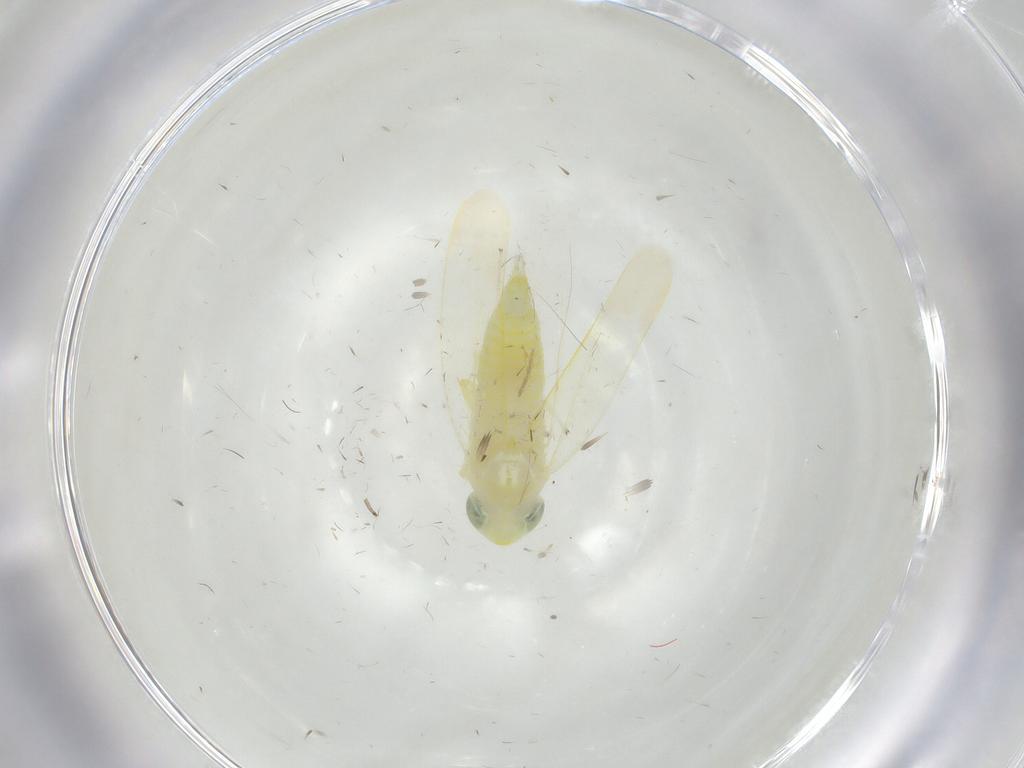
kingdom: Animalia
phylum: Arthropoda
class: Insecta
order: Hemiptera
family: Cicadellidae
